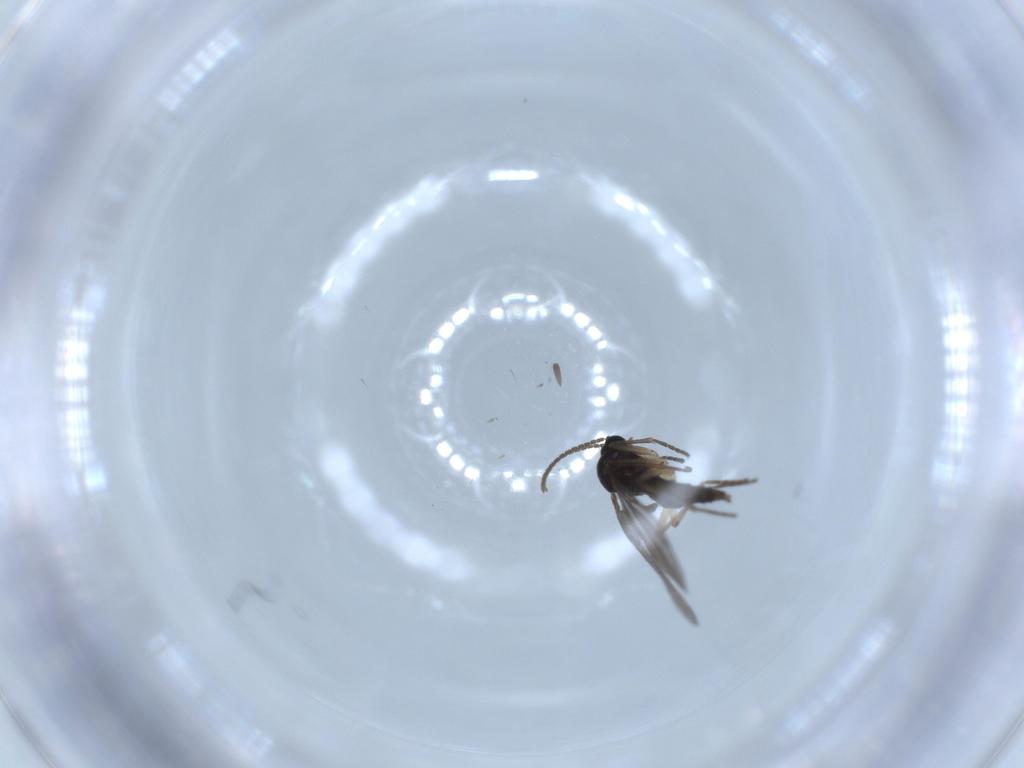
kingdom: Animalia
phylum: Arthropoda
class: Insecta
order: Diptera
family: Sciaridae
